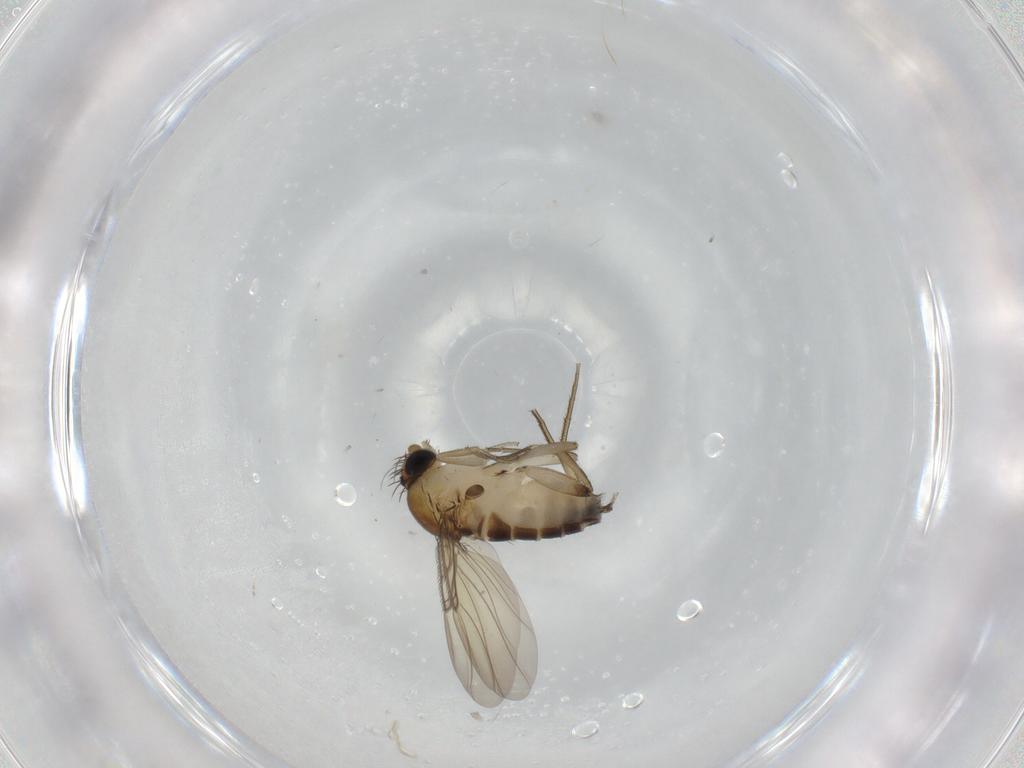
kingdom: Animalia
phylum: Arthropoda
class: Insecta
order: Diptera
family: Phoridae
